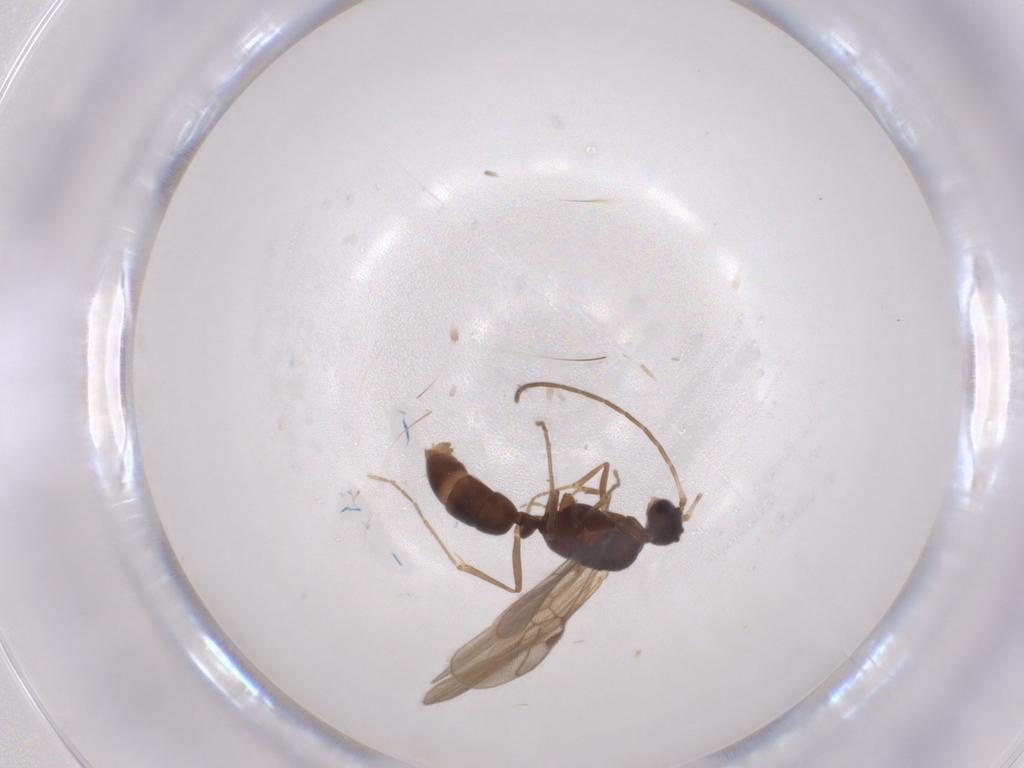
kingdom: Animalia
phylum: Arthropoda
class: Insecta
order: Hymenoptera
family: Formicidae
